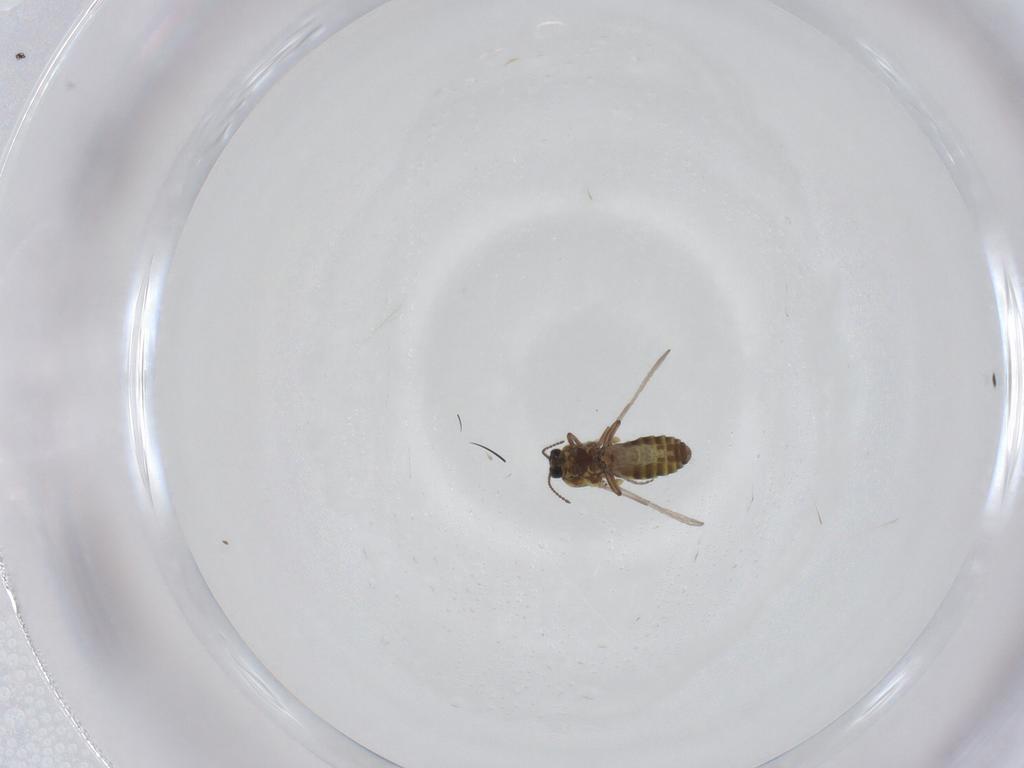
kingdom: Animalia
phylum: Arthropoda
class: Insecta
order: Diptera
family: Ceratopogonidae
